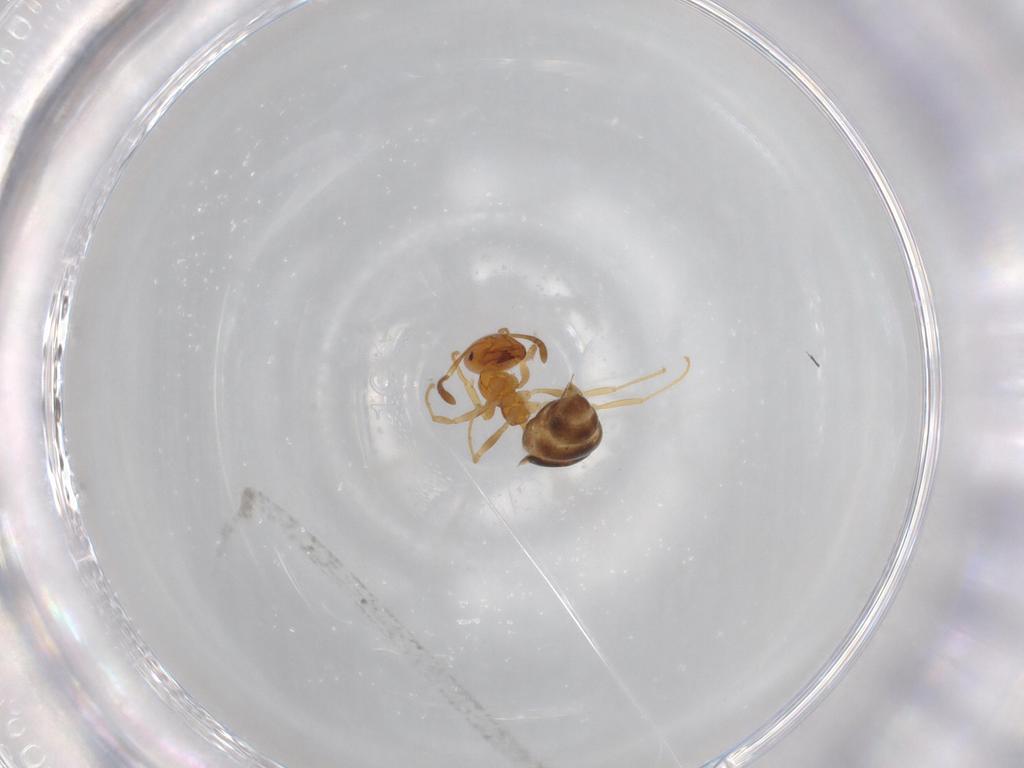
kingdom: Animalia
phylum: Arthropoda
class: Insecta
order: Hymenoptera
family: Formicidae
